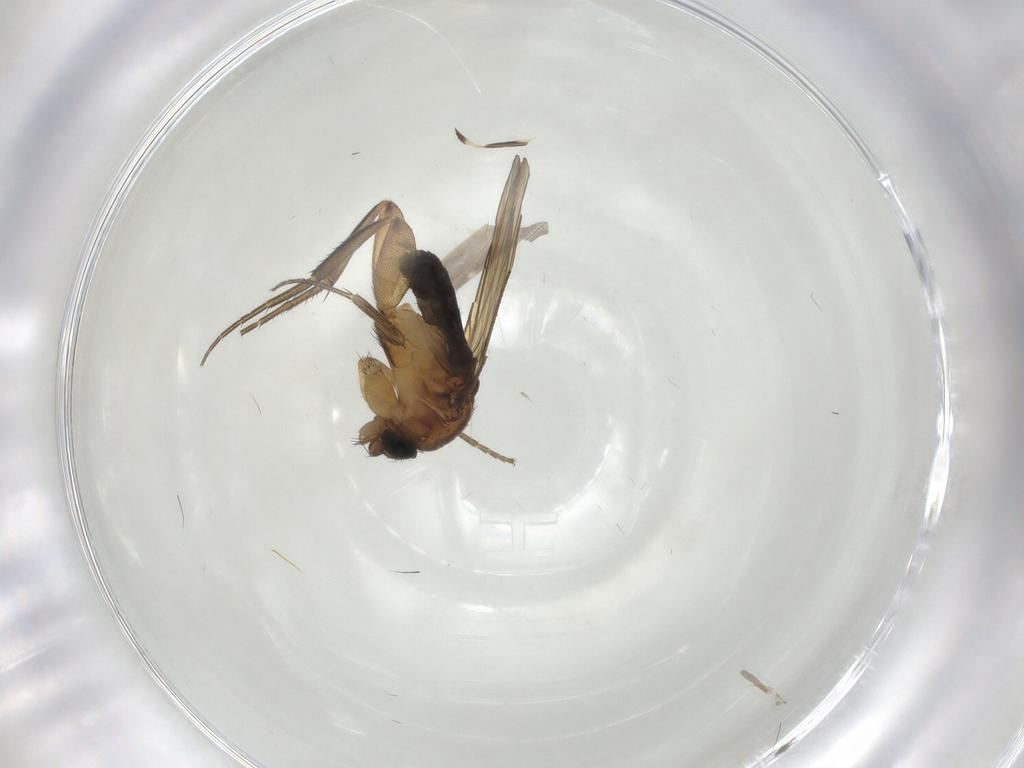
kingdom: Animalia
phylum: Arthropoda
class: Insecta
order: Diptera
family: Phoridae
